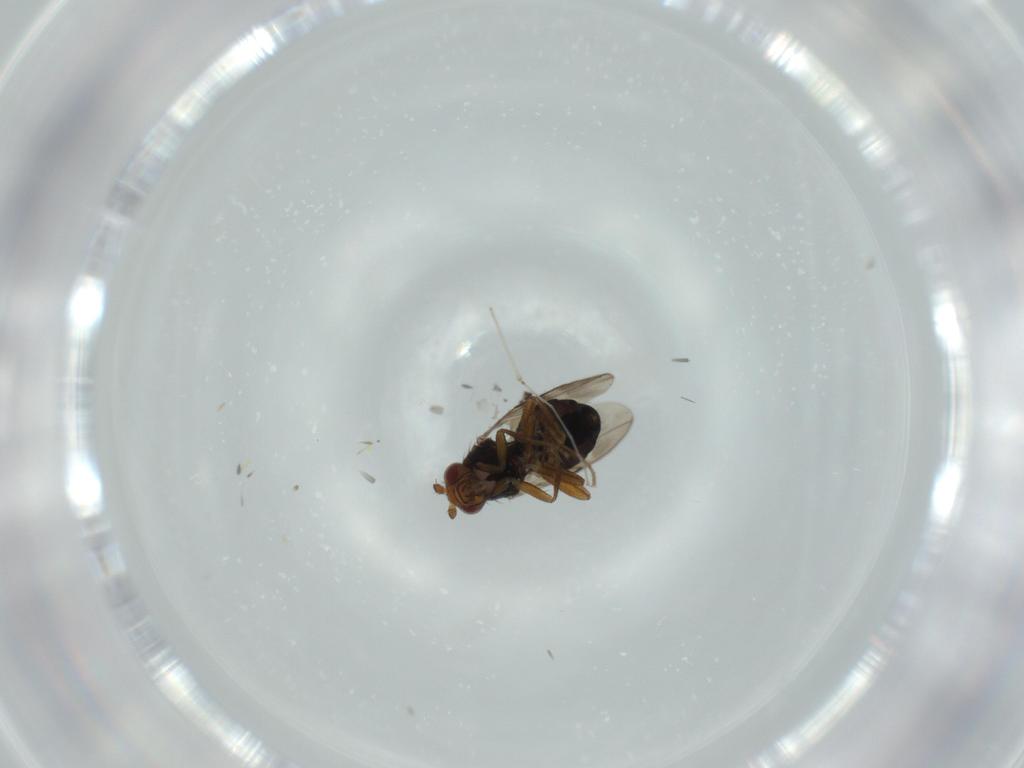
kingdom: Animalia
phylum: Arthropoda
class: Insecta
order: Diptera
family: Sphaeroceridae
